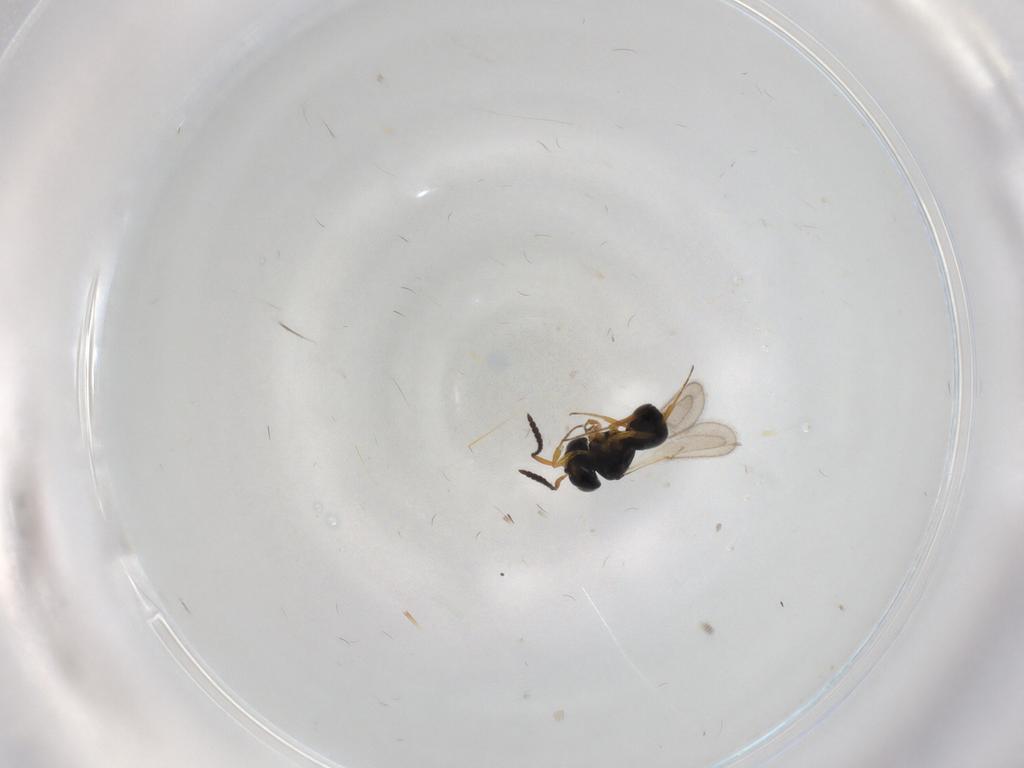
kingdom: Animalia
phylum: Arthropoda
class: Insecta
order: Hymenoptera
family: Scelionidae
